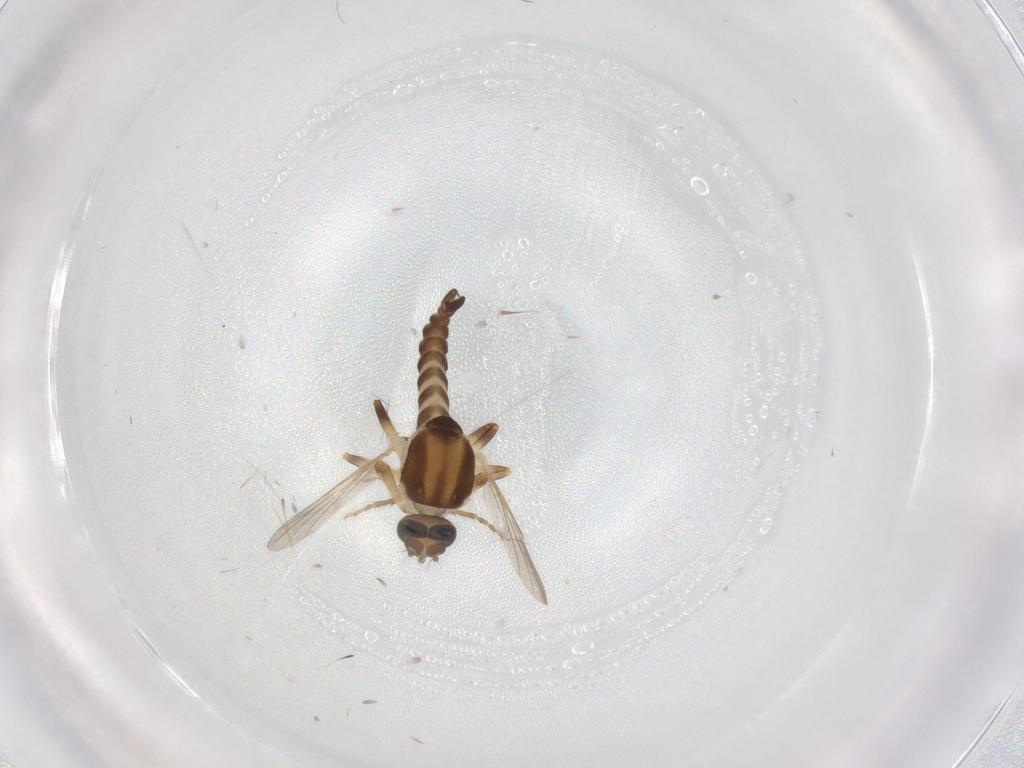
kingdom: Animalia
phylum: Arthropoda
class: Insecta
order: Diptera
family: Ceratopogonidae
